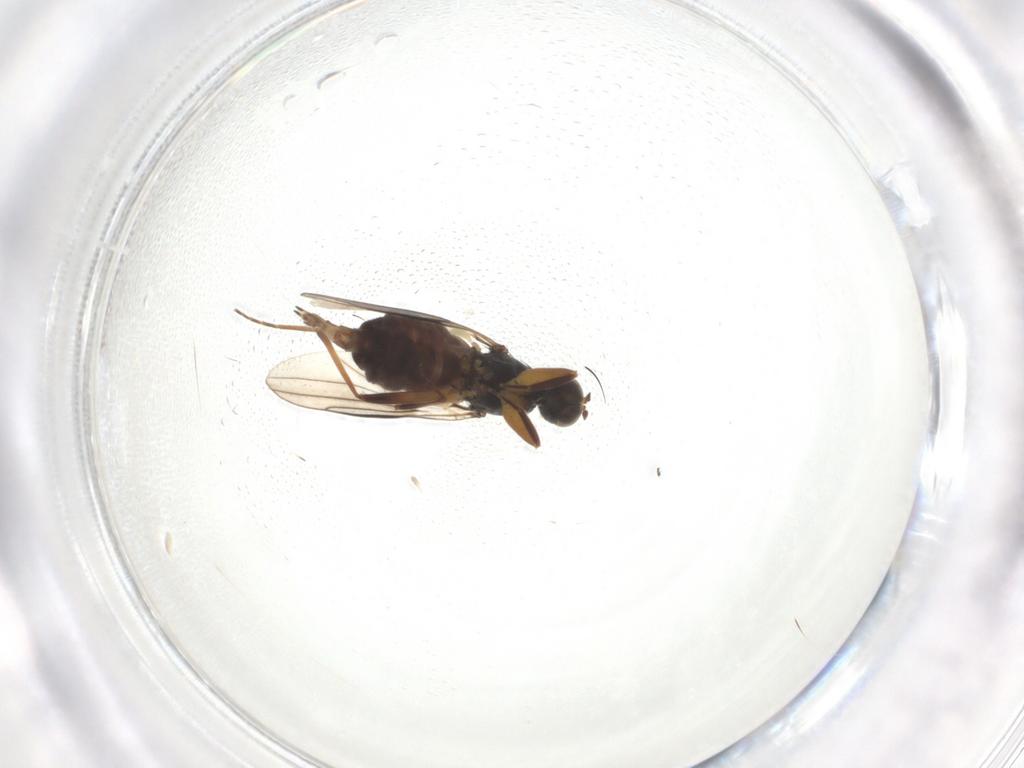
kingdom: Animalia
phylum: Arthropoda
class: Insecta
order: Diptera
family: Hybotidae
